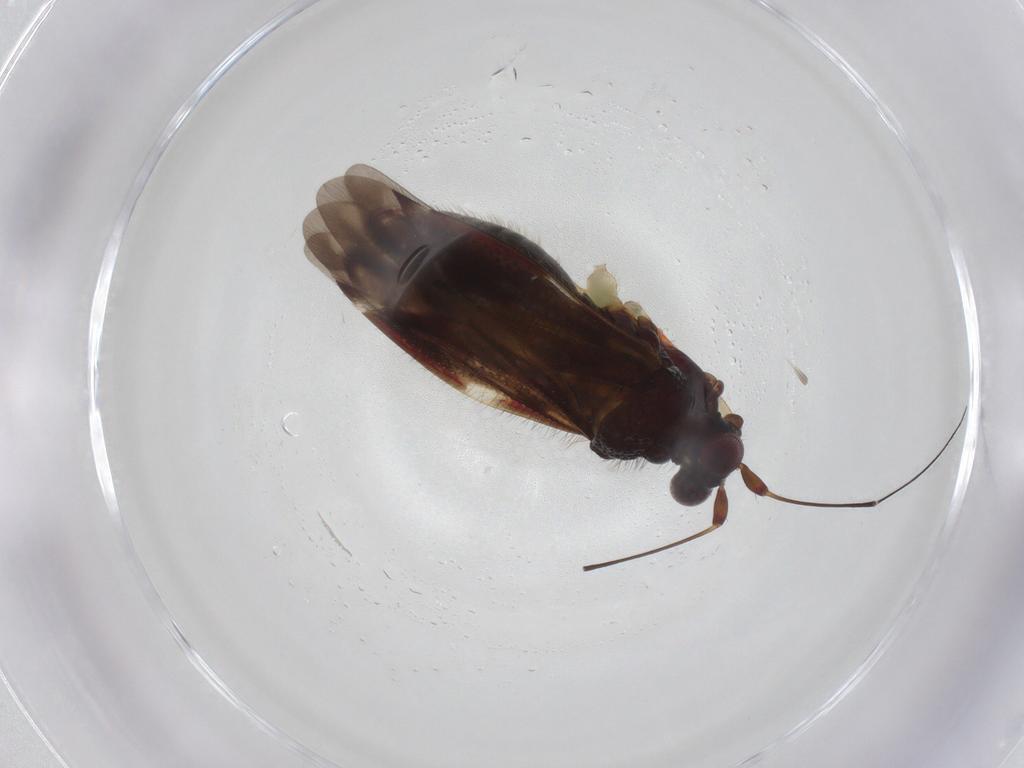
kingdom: Animalia
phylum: Arthropoda
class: Insecta
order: Hemiptera
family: Miridae
